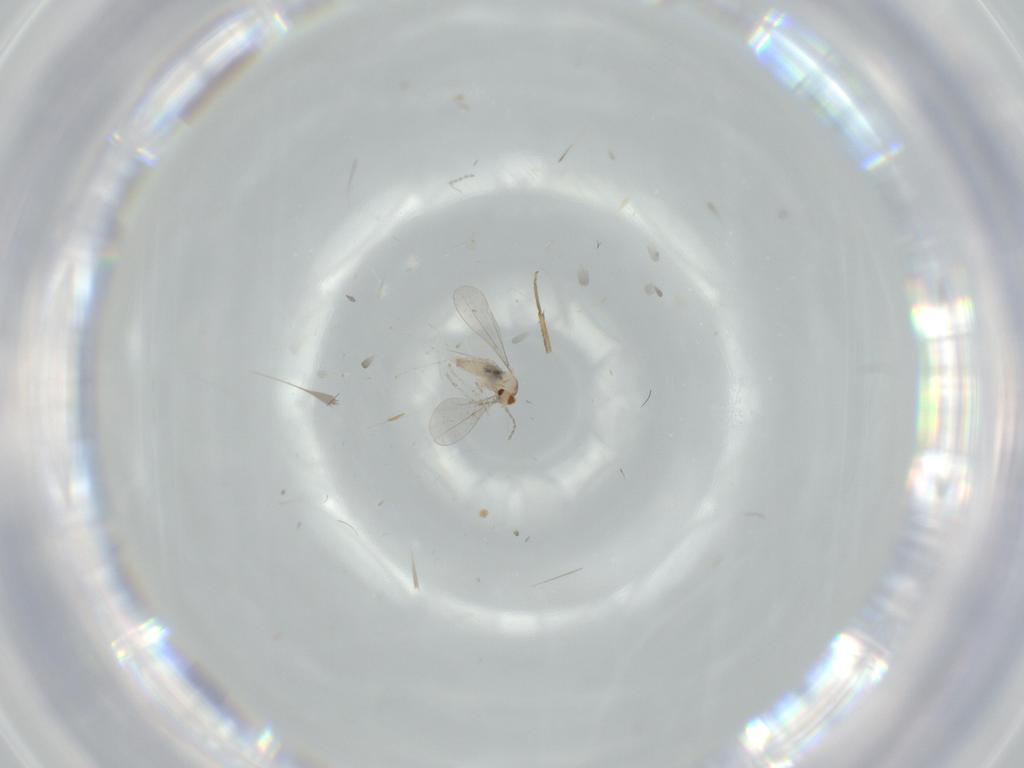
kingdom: Animalia
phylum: Arthropoda
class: Insecta
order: Diptera
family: Cecidomyiidae
